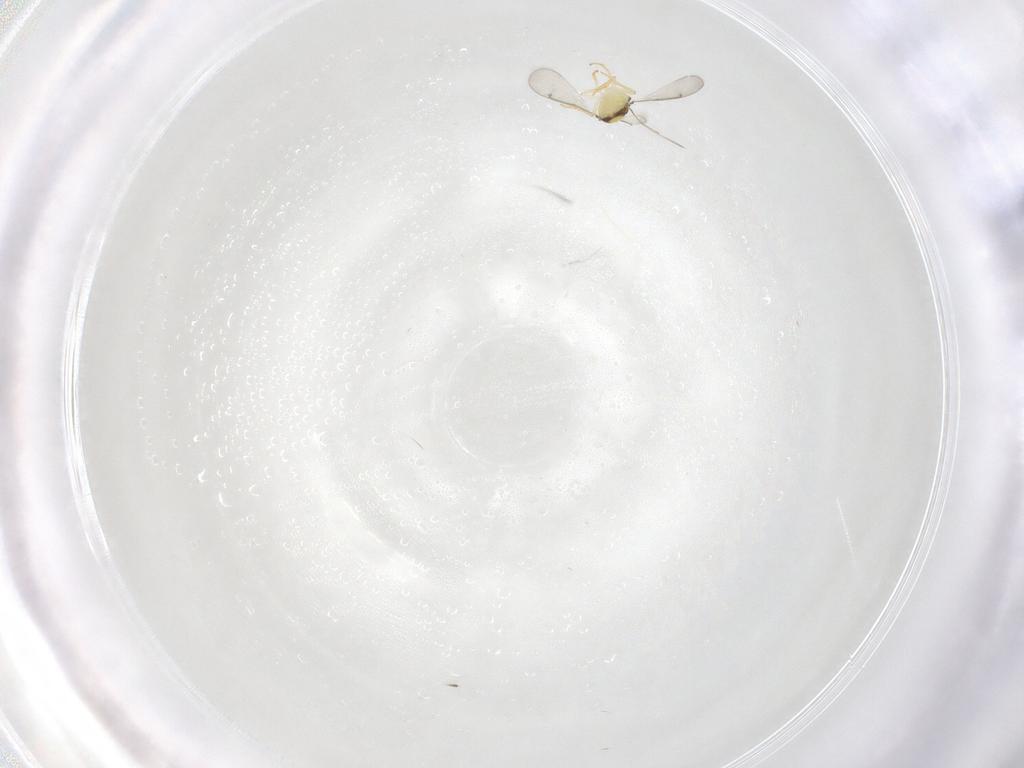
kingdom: Animalia
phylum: Arthropoda
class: Insecta
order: Hymenoptera
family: Aphelinidae
